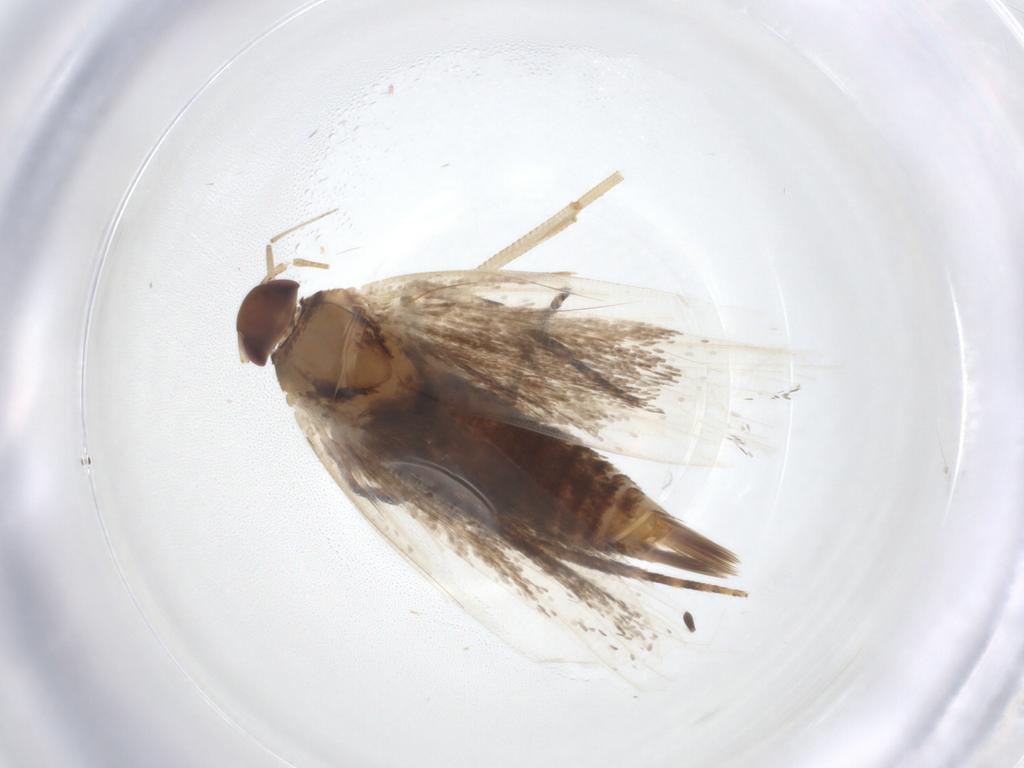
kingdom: Animalia
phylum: Arthropoda
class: Insecta
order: Lepidoptera
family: Gelechiidae
